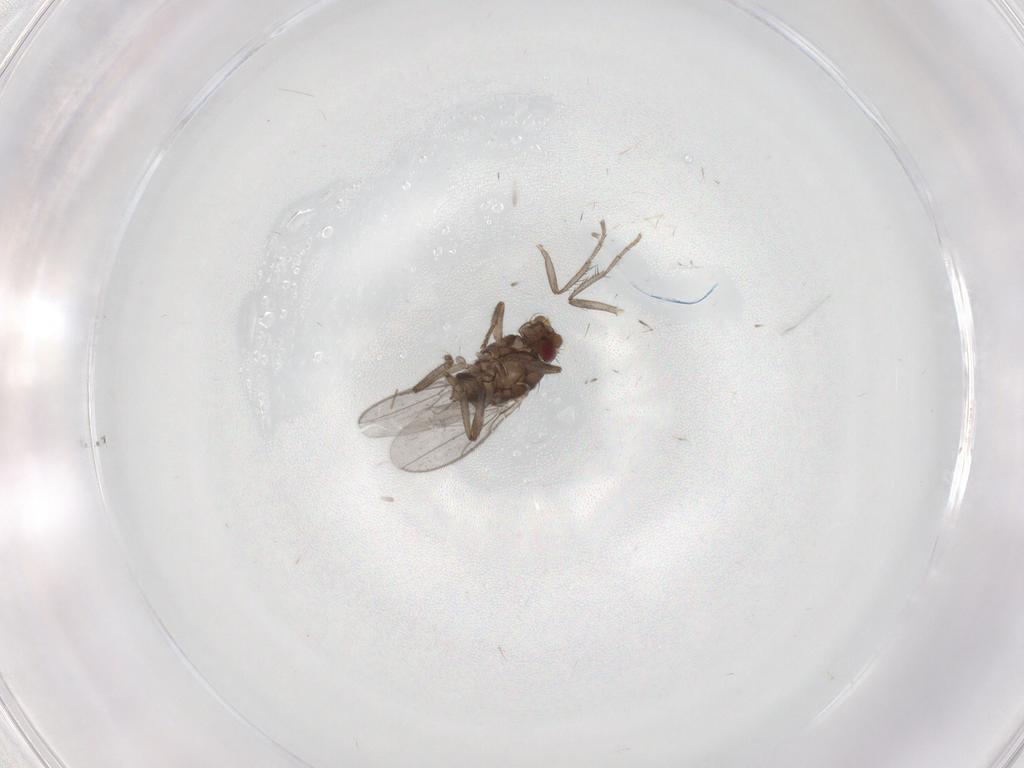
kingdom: Animalia
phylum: Arthropoda
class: Insecta
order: Diptera
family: Sphaeroceridae
